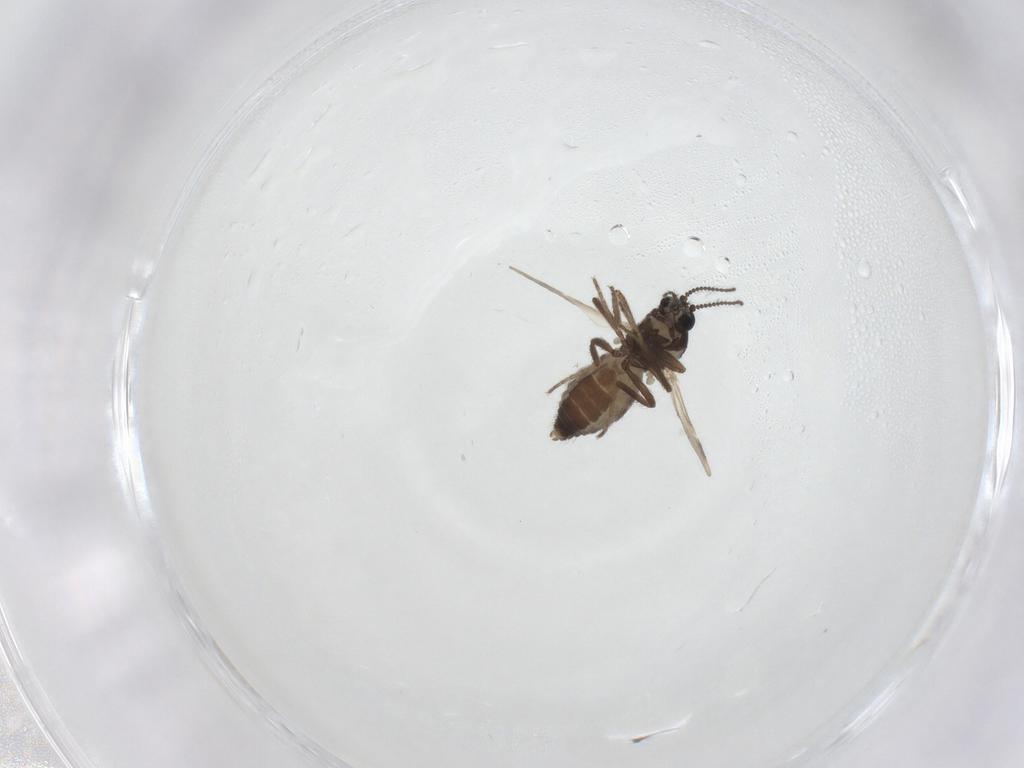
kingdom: Animalia
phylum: Arthropoda
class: Insecta
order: Diptera
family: Ceratopogonidae
